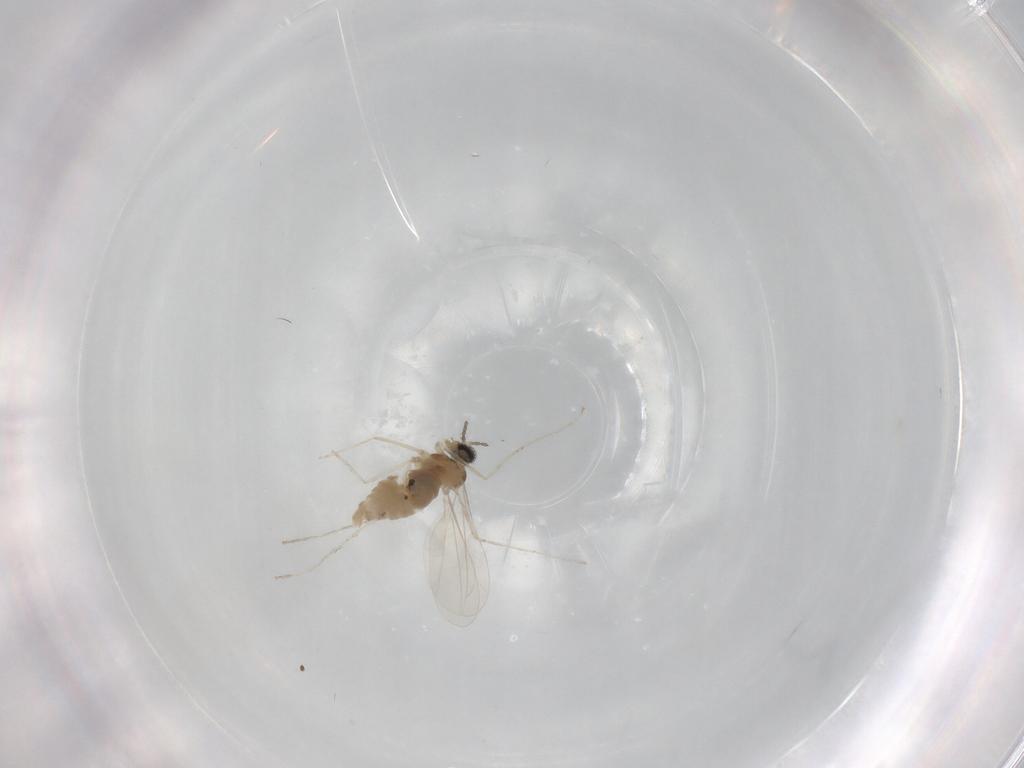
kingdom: Animalia
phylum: Arthropoda
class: Insecta
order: Diptera
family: Cecidomyiidae
